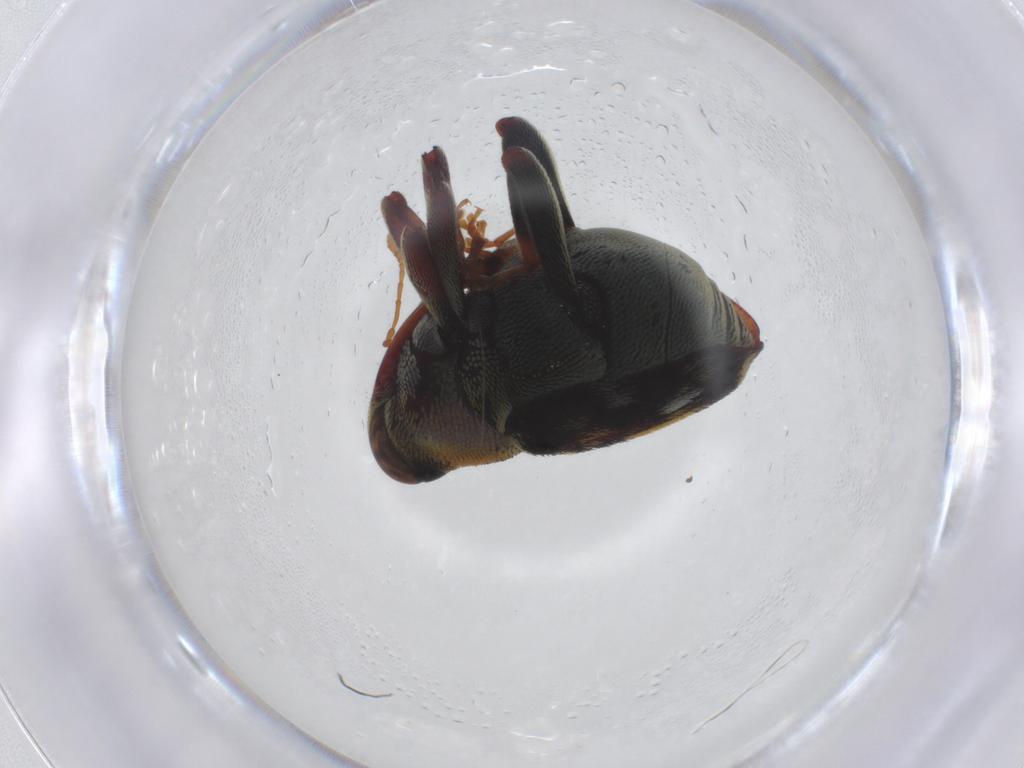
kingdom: Animalia
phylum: Arthropoda
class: Insecta
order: Coleoptera
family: Curculionidae
